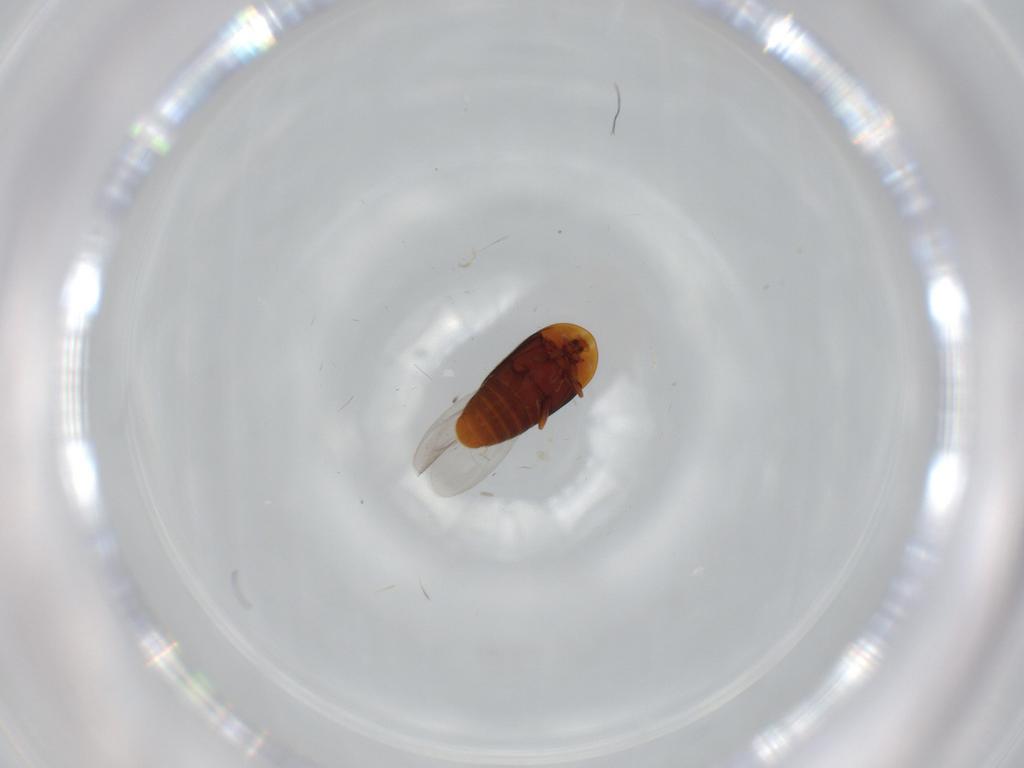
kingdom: Animalia
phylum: Arthropoda
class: Insecta
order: Coleoptera
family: Corylophidae
